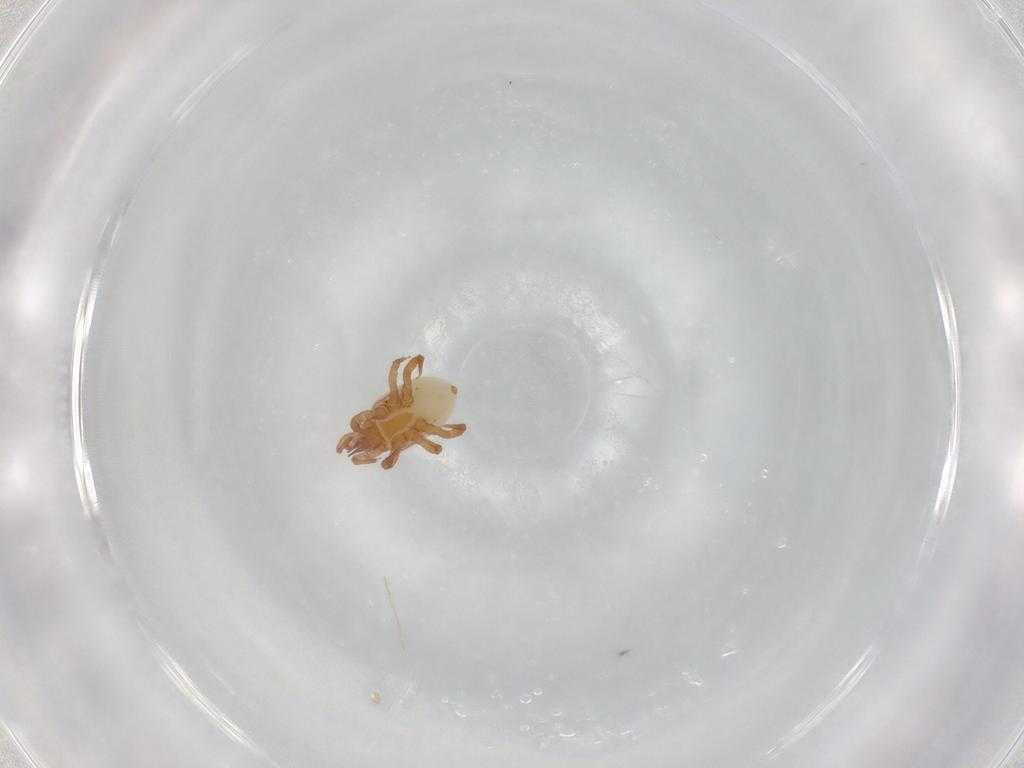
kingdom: Animalia
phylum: Arthropoda
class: Arachnida
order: Mesostigmata
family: Parasitidae
